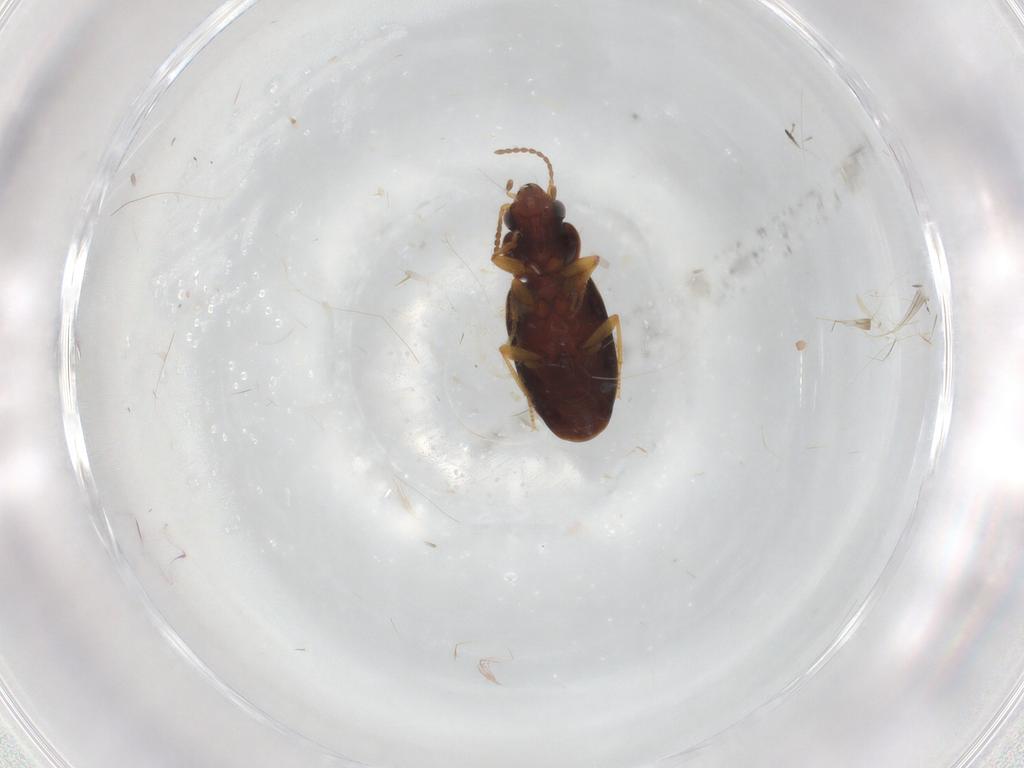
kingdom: Animalia
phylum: Arthropoda
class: Insecta
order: Coleoptera
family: Carabidae
